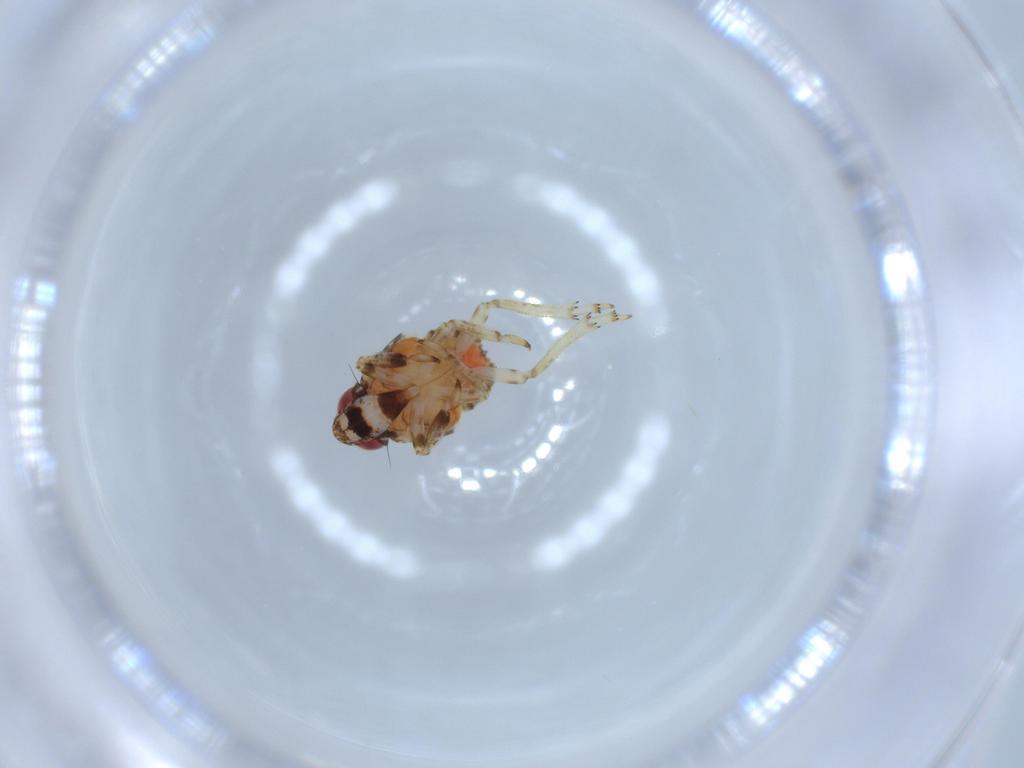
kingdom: Animalia
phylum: Arthropoda
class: Insecta
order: Hemiptera
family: Issidae
